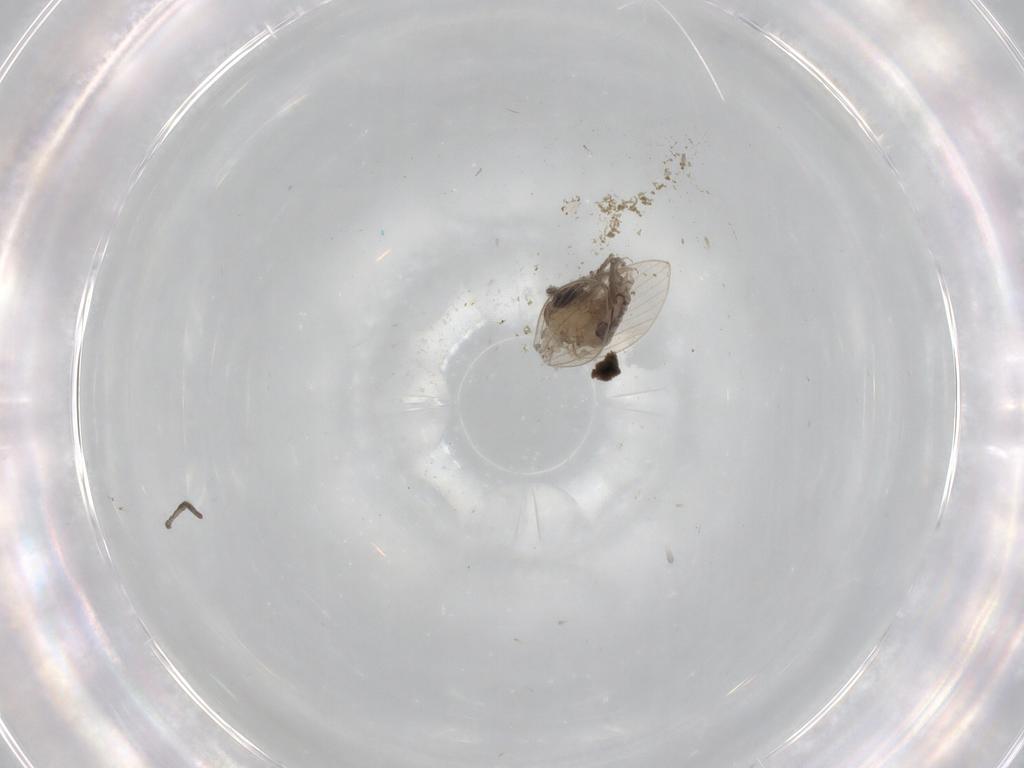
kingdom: Animalia
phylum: Arthropoda
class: Insecta
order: Diptera
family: Psychodidae
